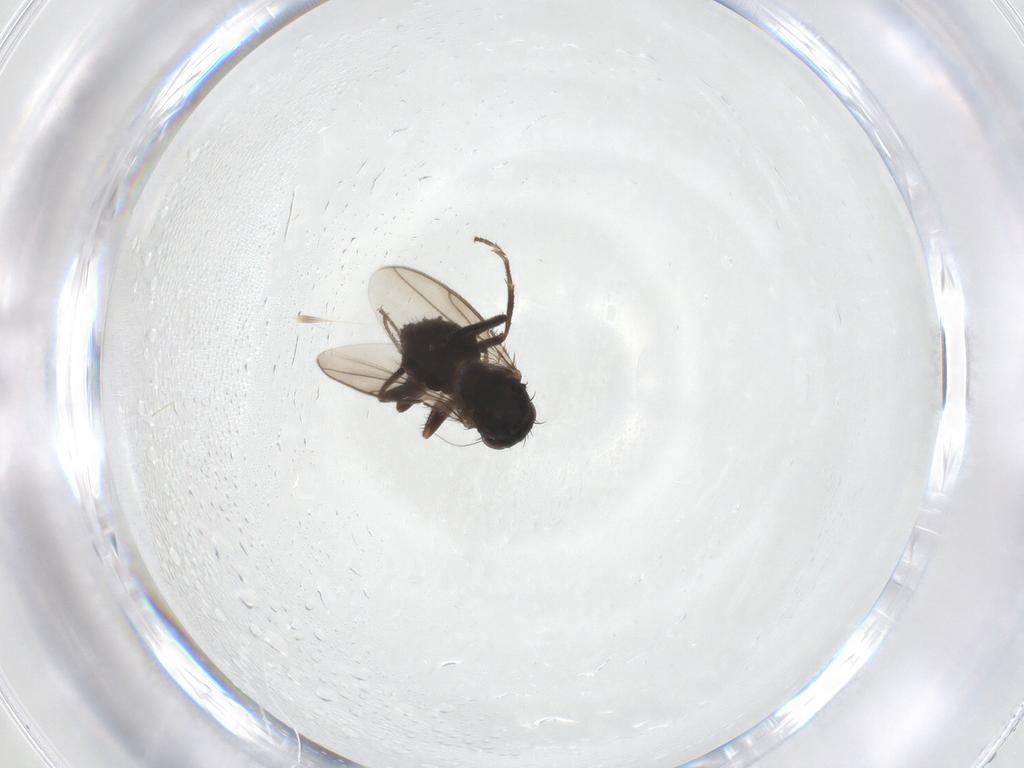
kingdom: Animalia
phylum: Arthropoda
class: Insecta
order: Diptera
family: Sphaeroceridae
